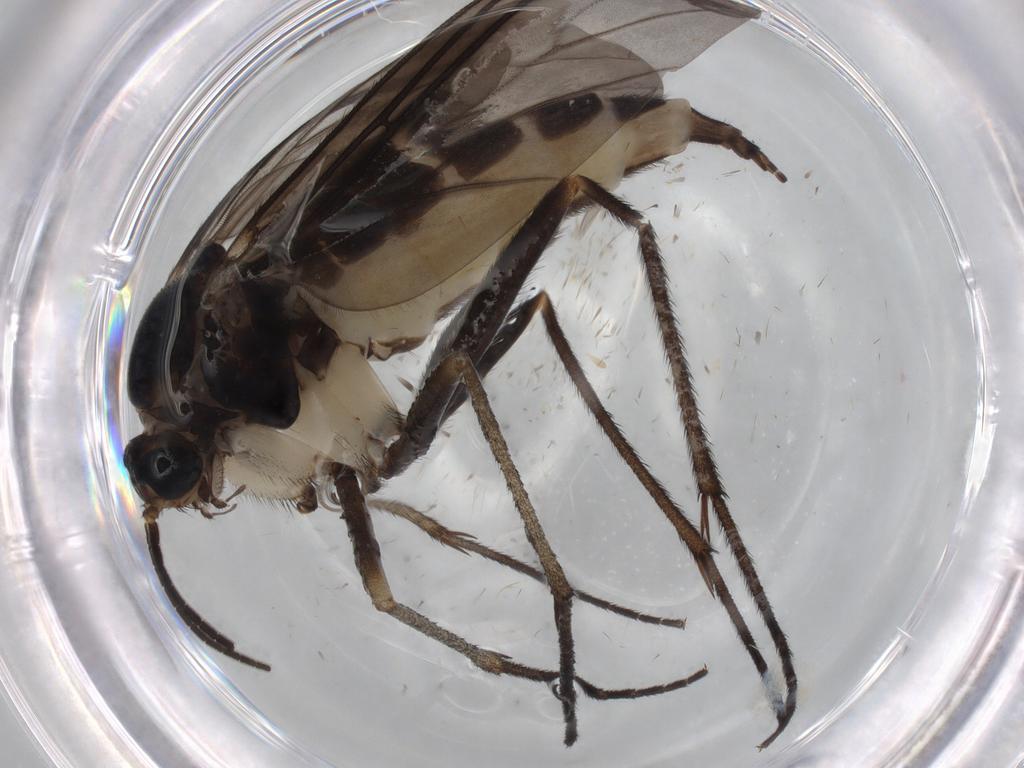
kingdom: Animalia
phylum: Arthropoda
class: Insecta
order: Diptera
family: Sciaridae
